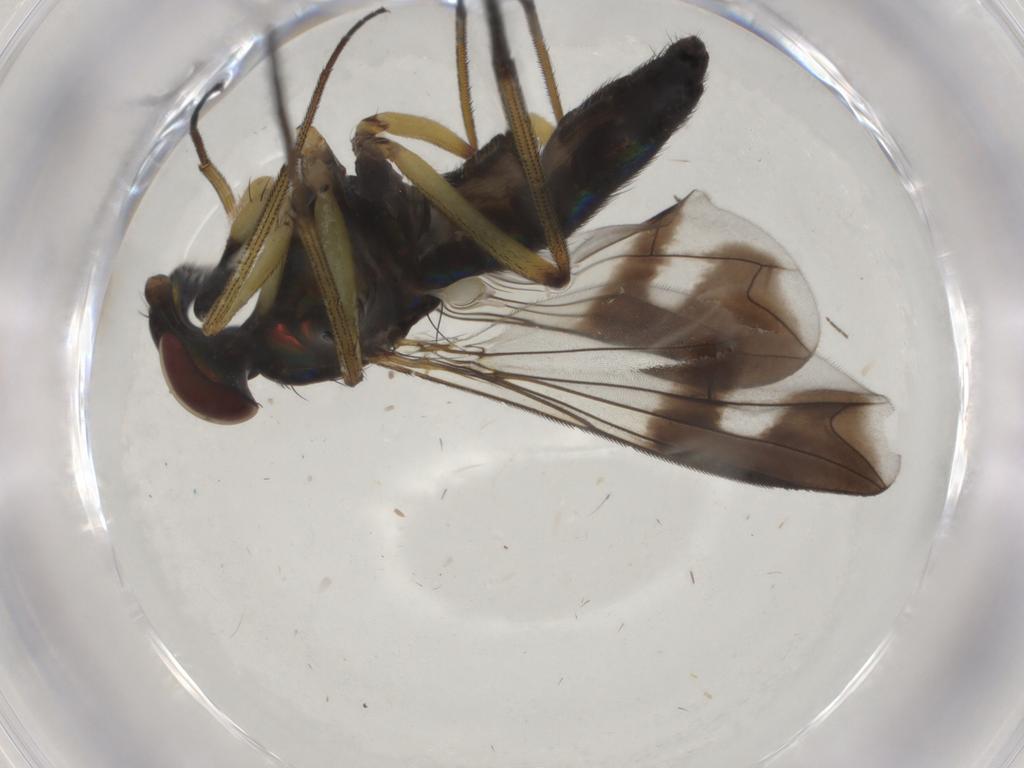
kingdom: Animalia
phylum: Arthropoda
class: Insecta
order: Diptera
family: Dolichopodidae
